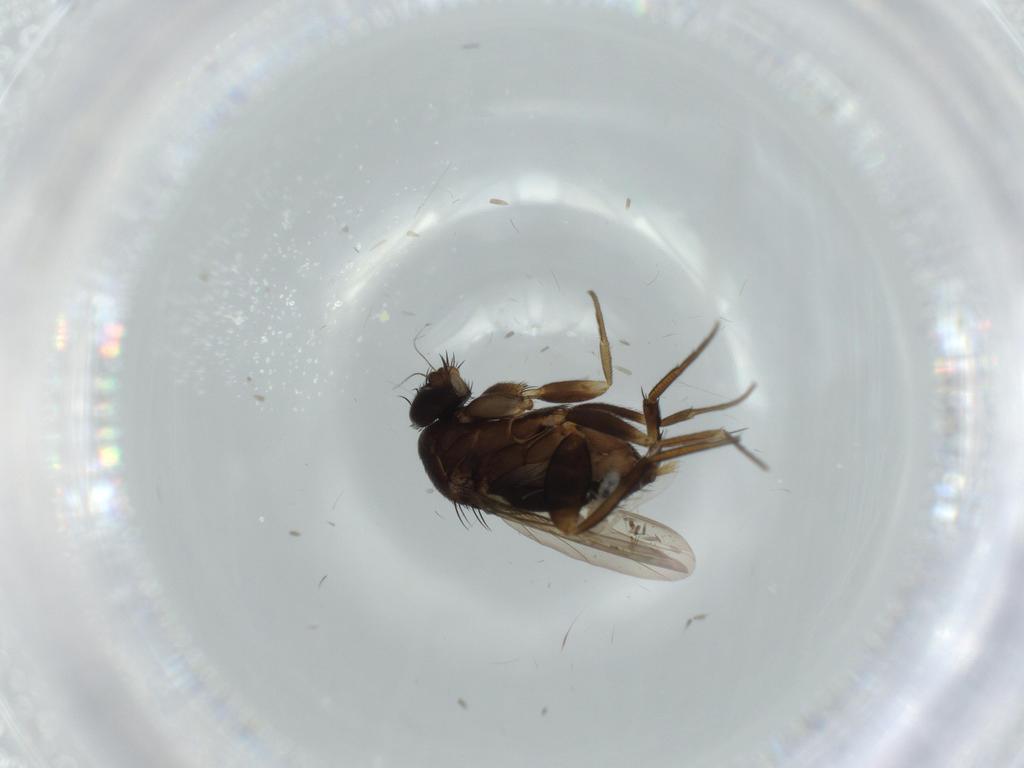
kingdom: Animalia
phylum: Arthropoda
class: Insecta
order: Diptera
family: Phoridae
